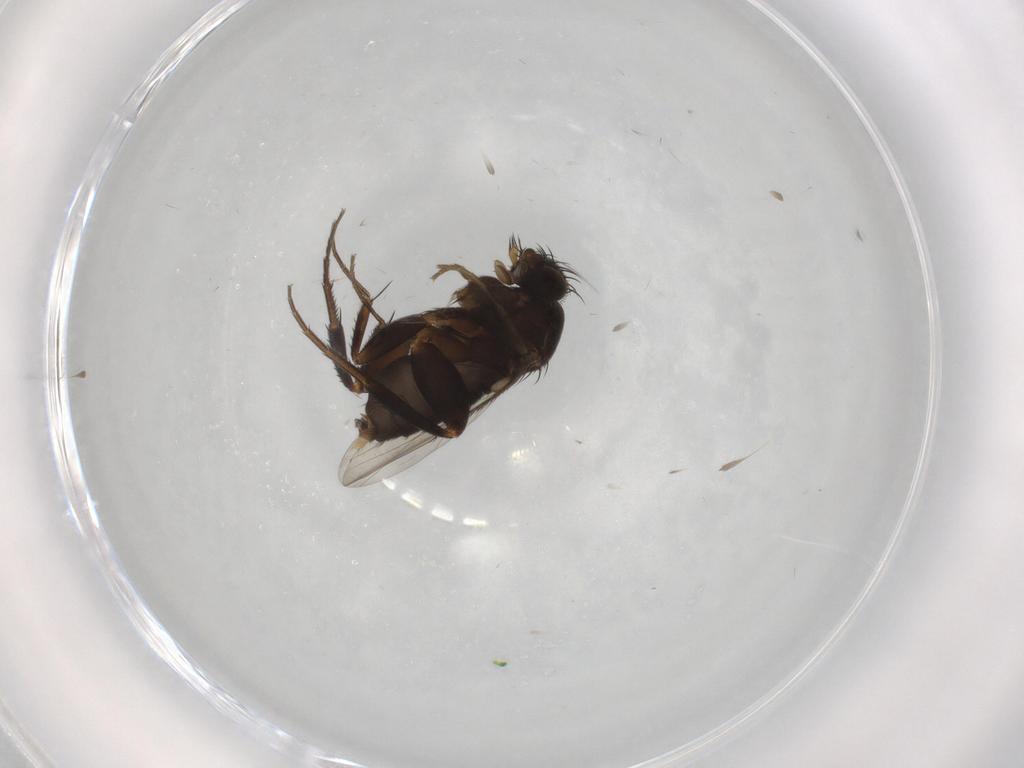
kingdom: Animalia
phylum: Arthropoda
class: Insecta
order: Diptera
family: Phoridae
